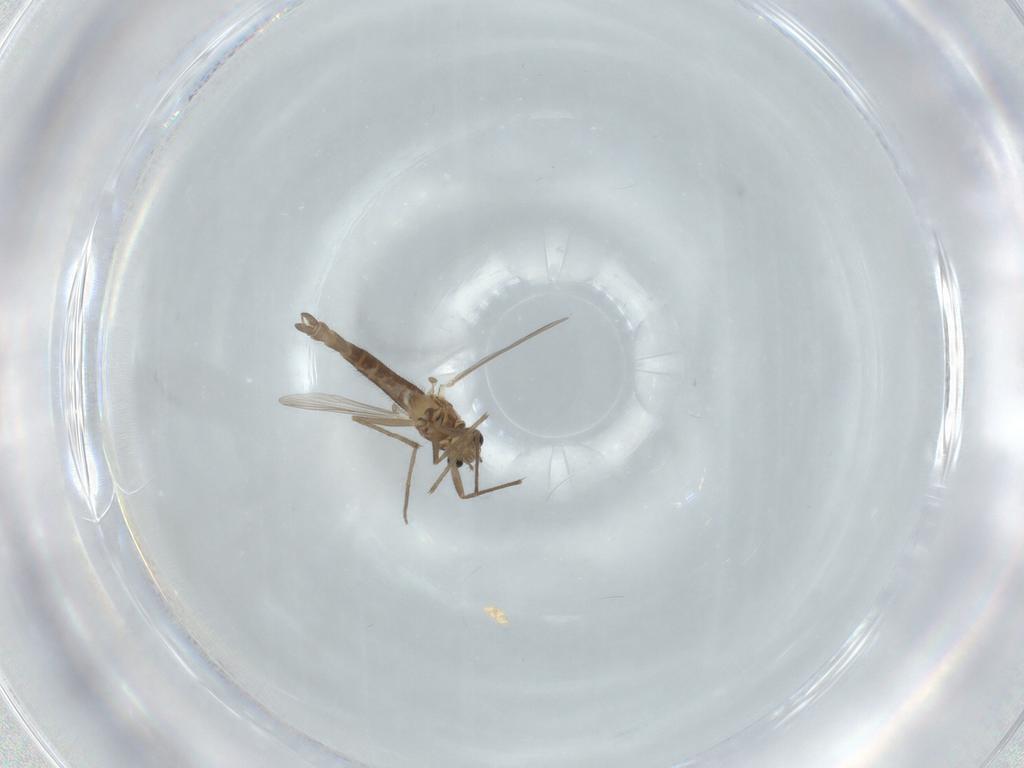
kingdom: Animalia
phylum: Arthropoda
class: Insecta
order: Diptera
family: Chironomidae
